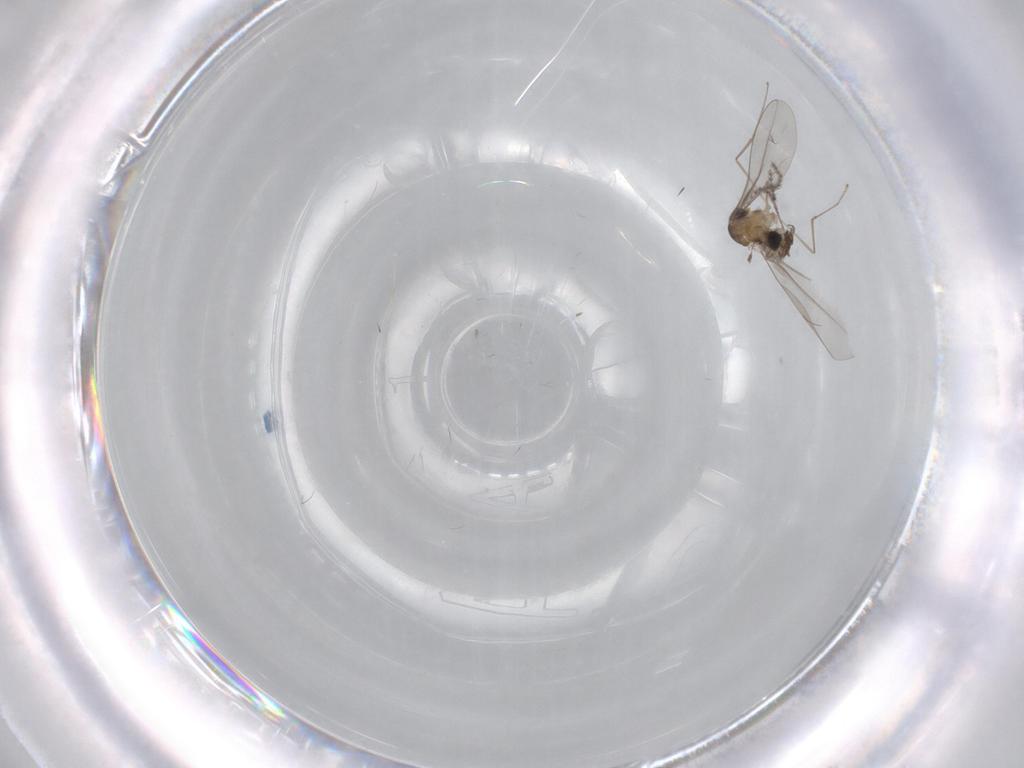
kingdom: Animalia
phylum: Arthropoda
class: Insecta
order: Diptera
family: Cecidomyiidae
